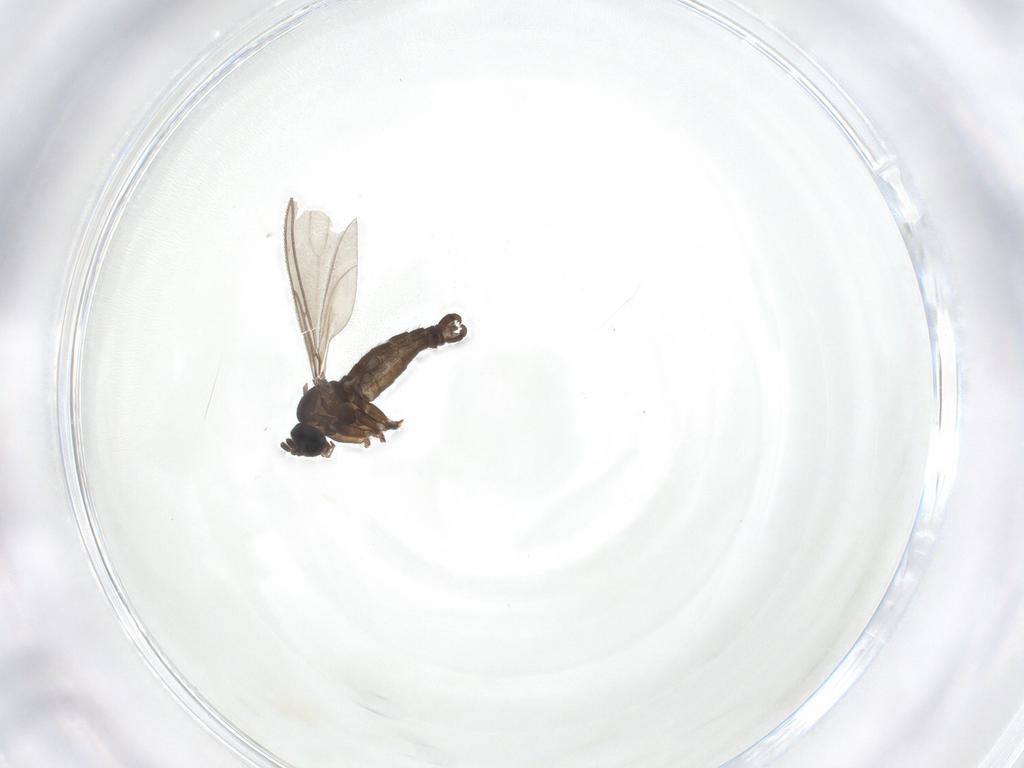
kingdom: Animalia
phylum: Arthropoda
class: Insecta
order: Diptera
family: Sciaridae
